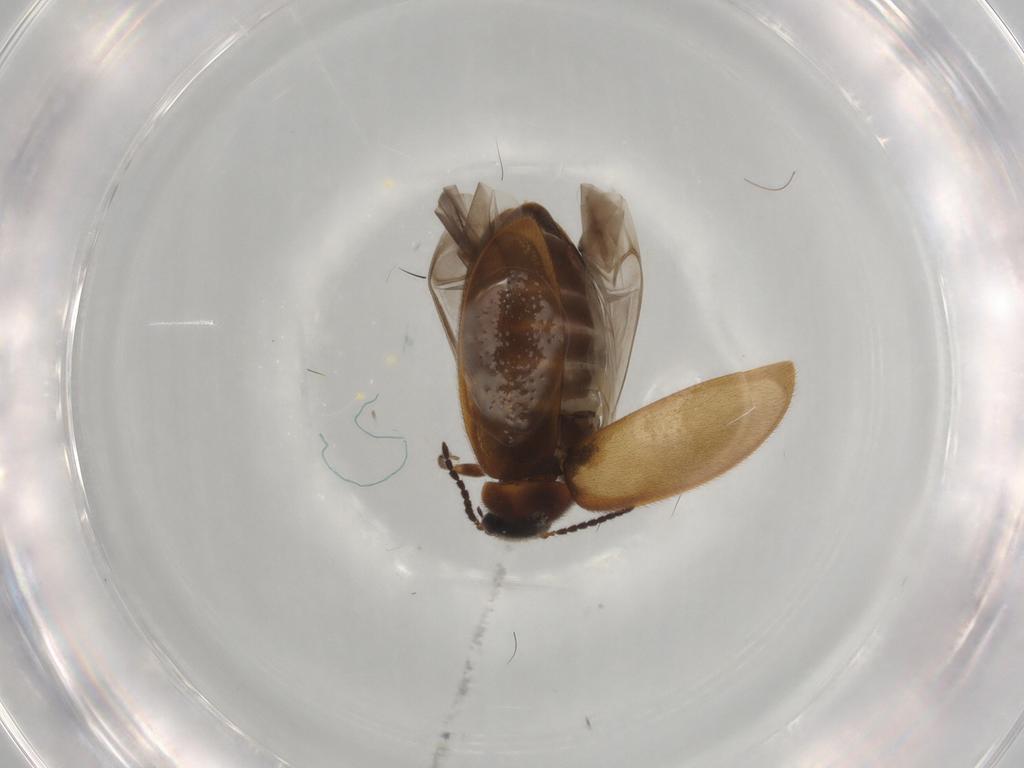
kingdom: Animalia
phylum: Arthropoda
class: Insecta
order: Coleoptera
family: Scirtidae
